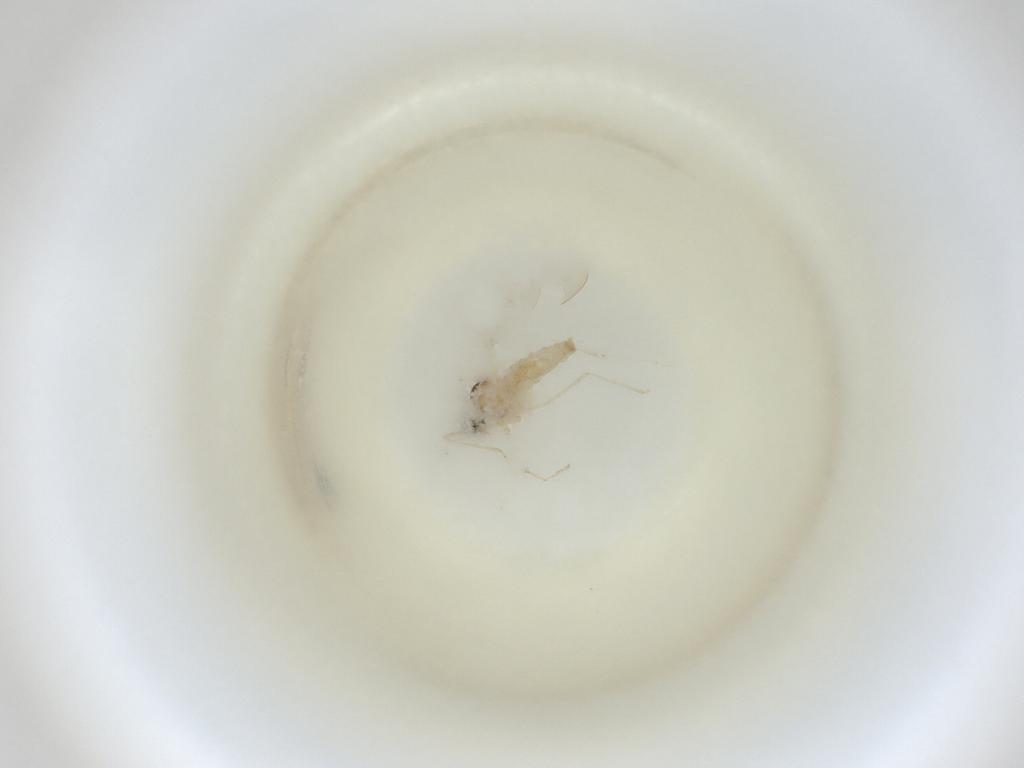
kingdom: Animalia
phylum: Arthropoda
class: Insecta
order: Diptera
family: Cecidomyiidae
